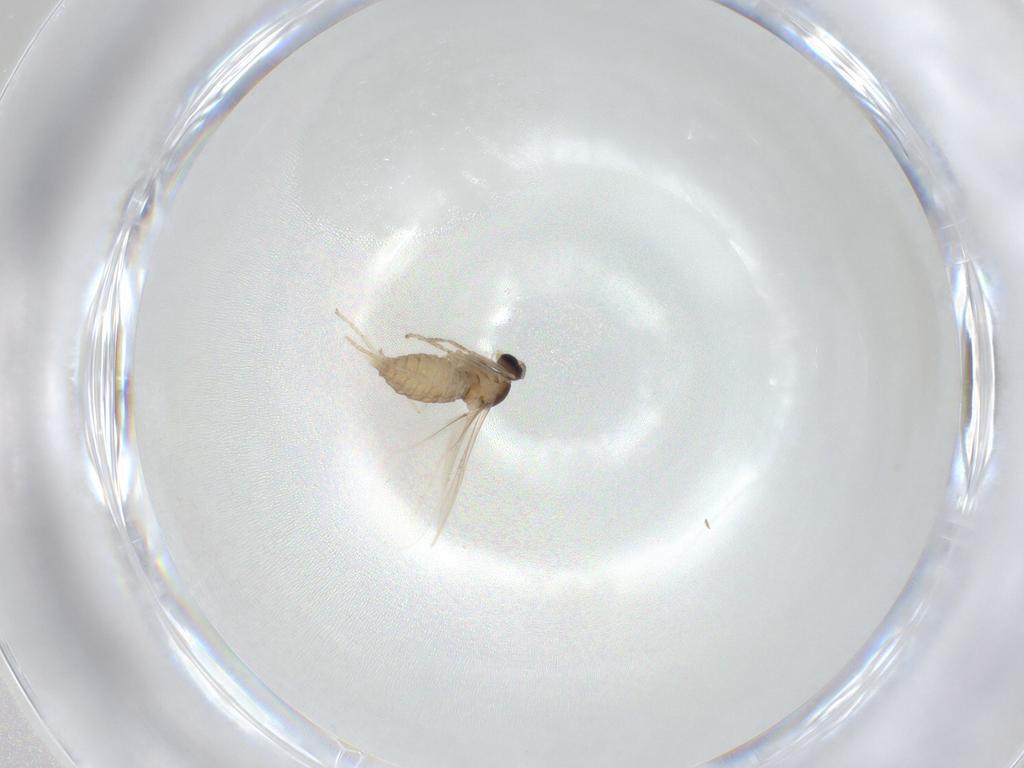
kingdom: Animalia
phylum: Arthropoda
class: Insecta
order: Diptera
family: Cecidomyiidae
